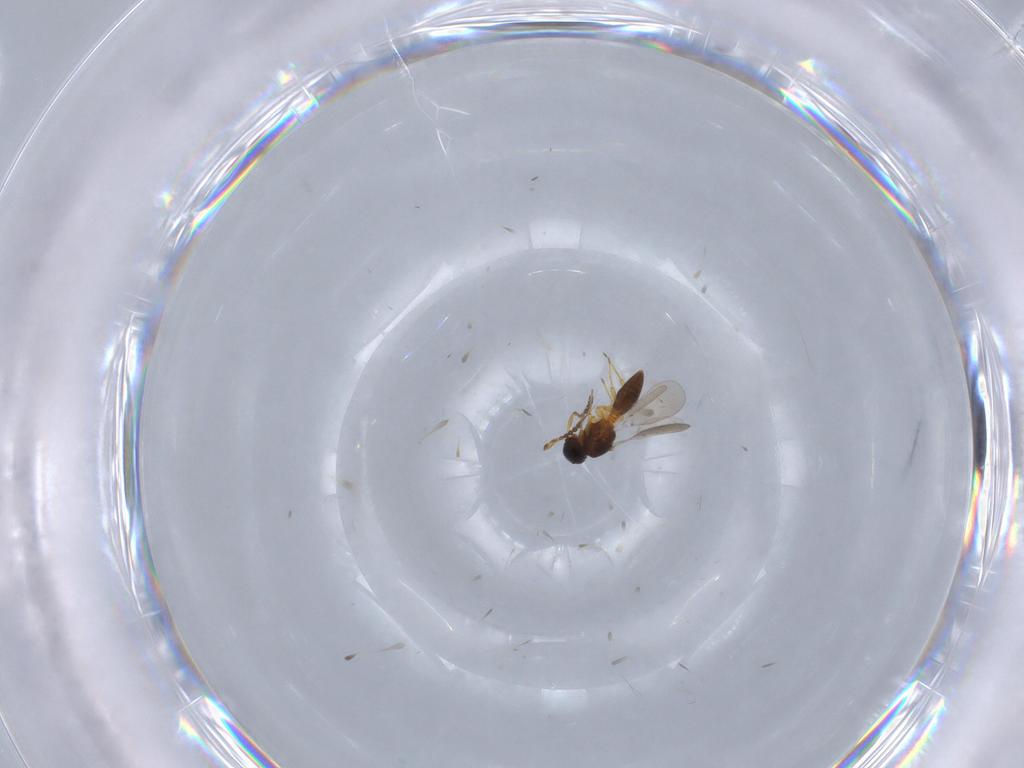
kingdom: Animalia
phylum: Arthropoda
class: Insecta
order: Hymenoptera
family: Platygastridae
